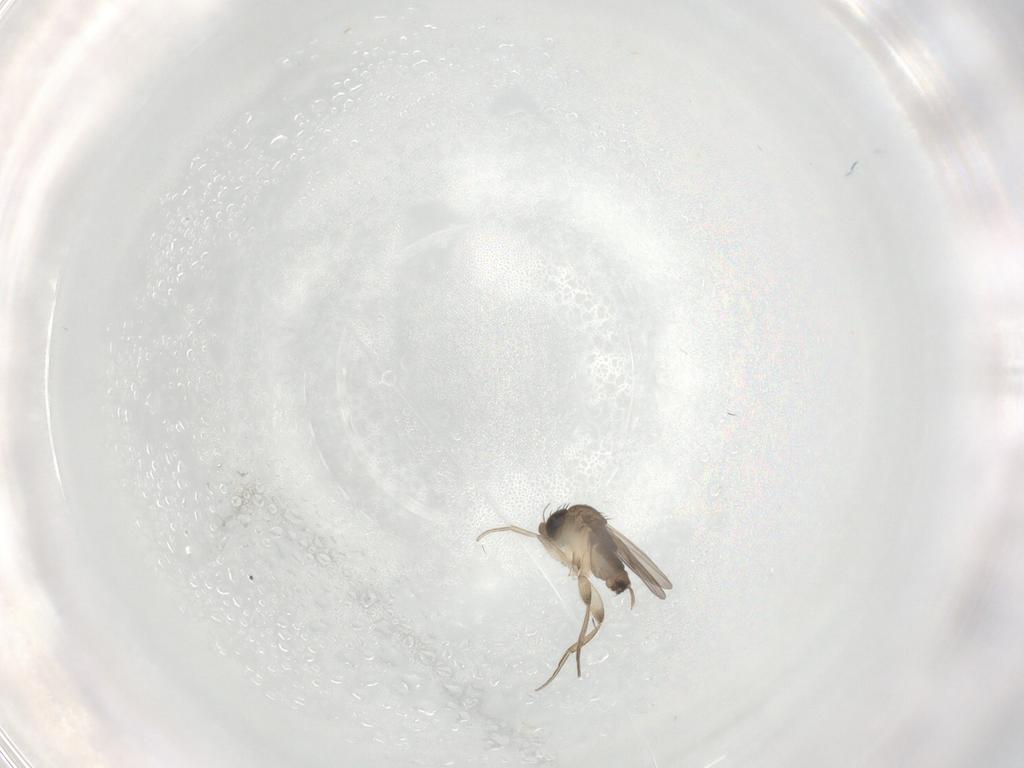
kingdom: Animalia
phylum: Arthropoda
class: Insecta
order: Diptera
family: Phoridae
